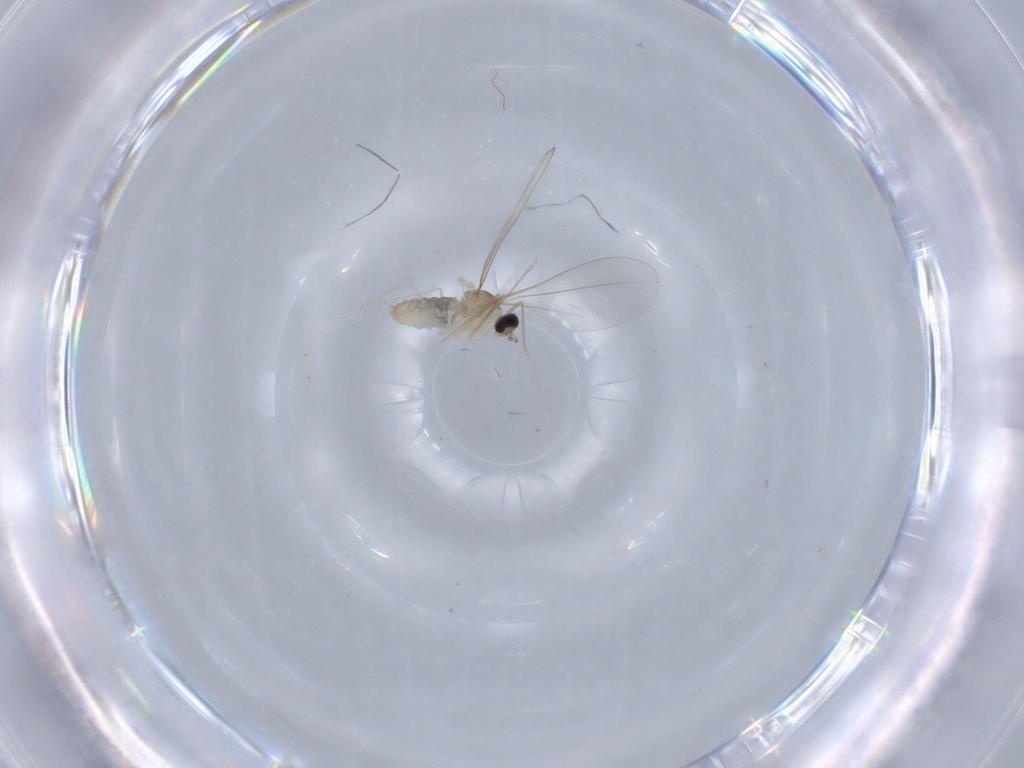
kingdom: Animalia
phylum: Arthropoda
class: Insecta
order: Diptera
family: Cecidomyiidae
